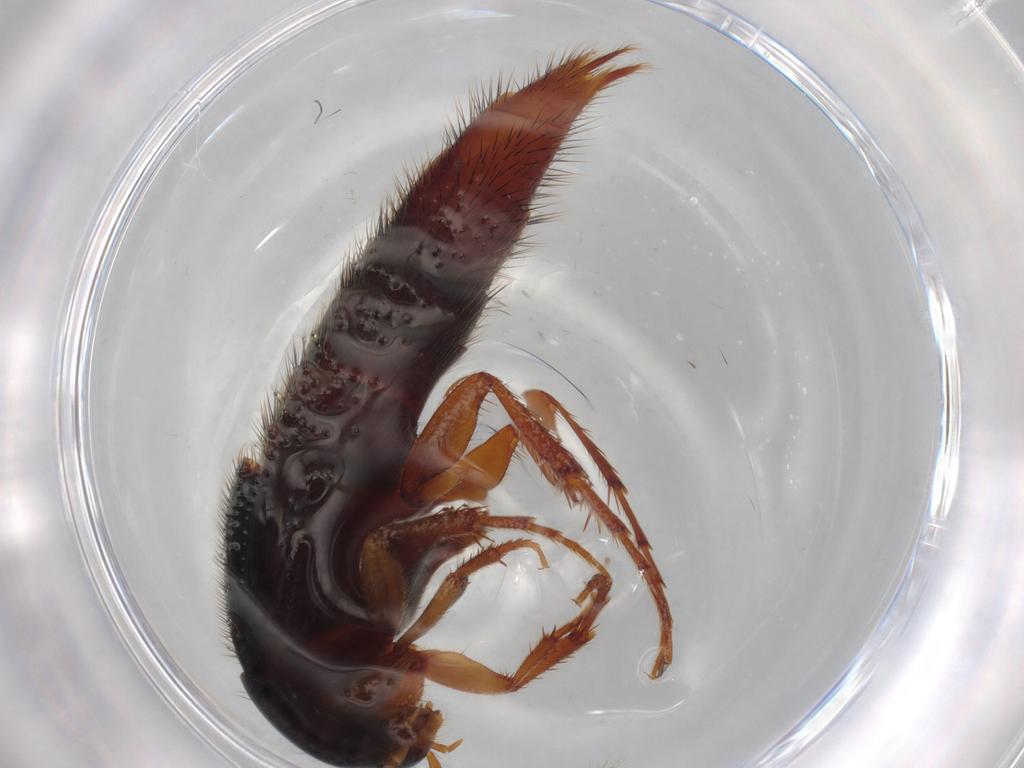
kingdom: Animalia
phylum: Arthropoda
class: Insecta
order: Coleoptera
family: Staphylinidae
